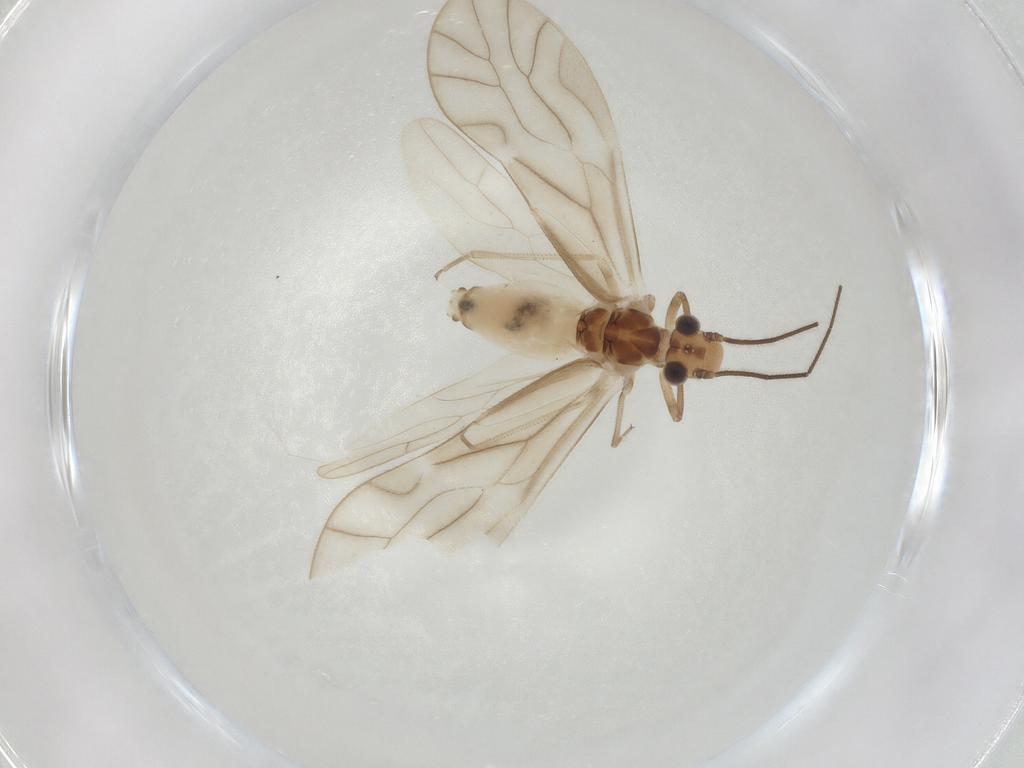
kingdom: Animalia
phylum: Arthropoda
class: Insecta
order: Psocodea
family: Caeciliusidae
